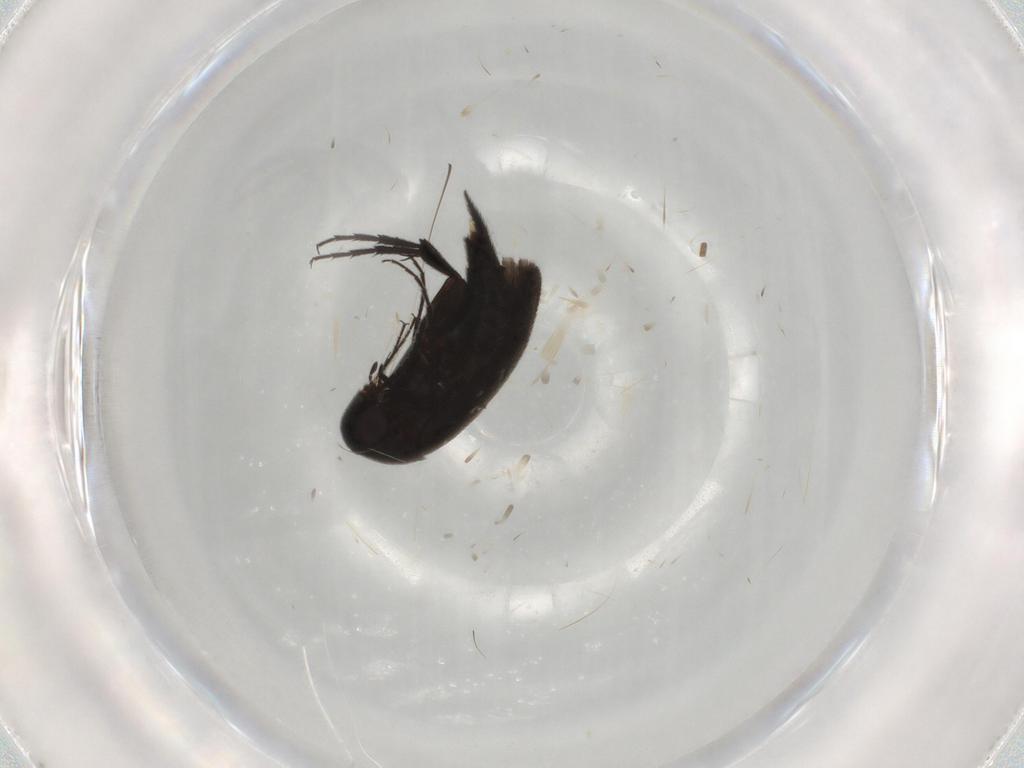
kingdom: Animalia
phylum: Arthropoda
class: Insecta
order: Coleoptera
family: Mordellidae
